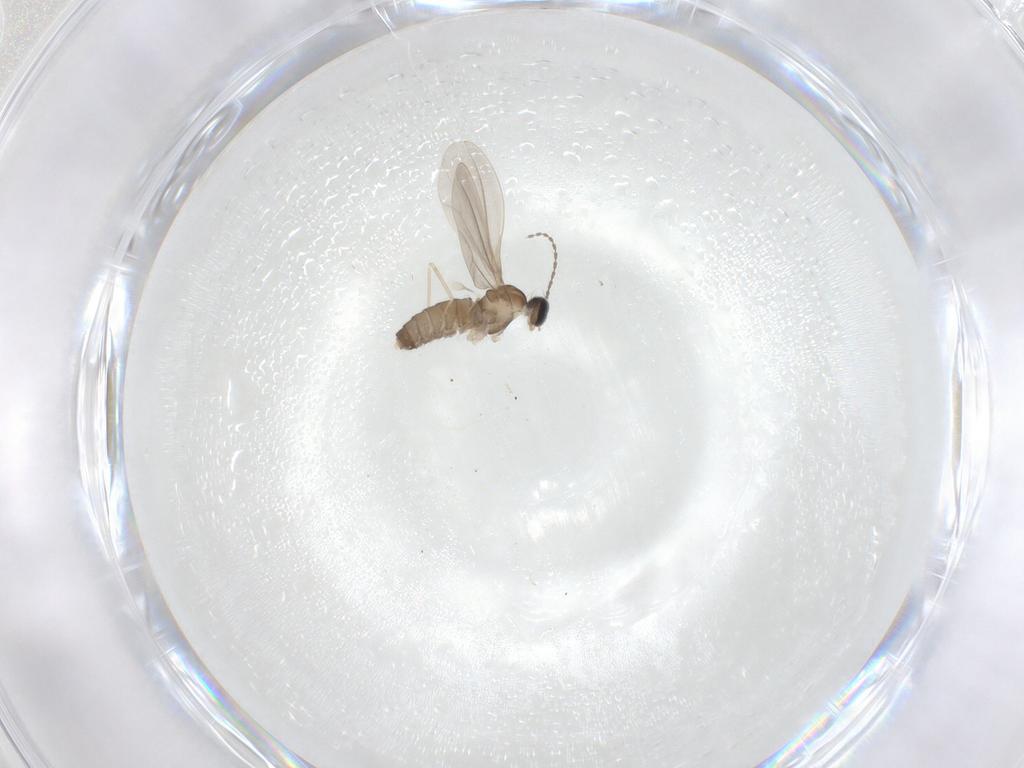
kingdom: Animalia
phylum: Arthropoda
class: Insecta
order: Diptera
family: Cecidomyiidae
